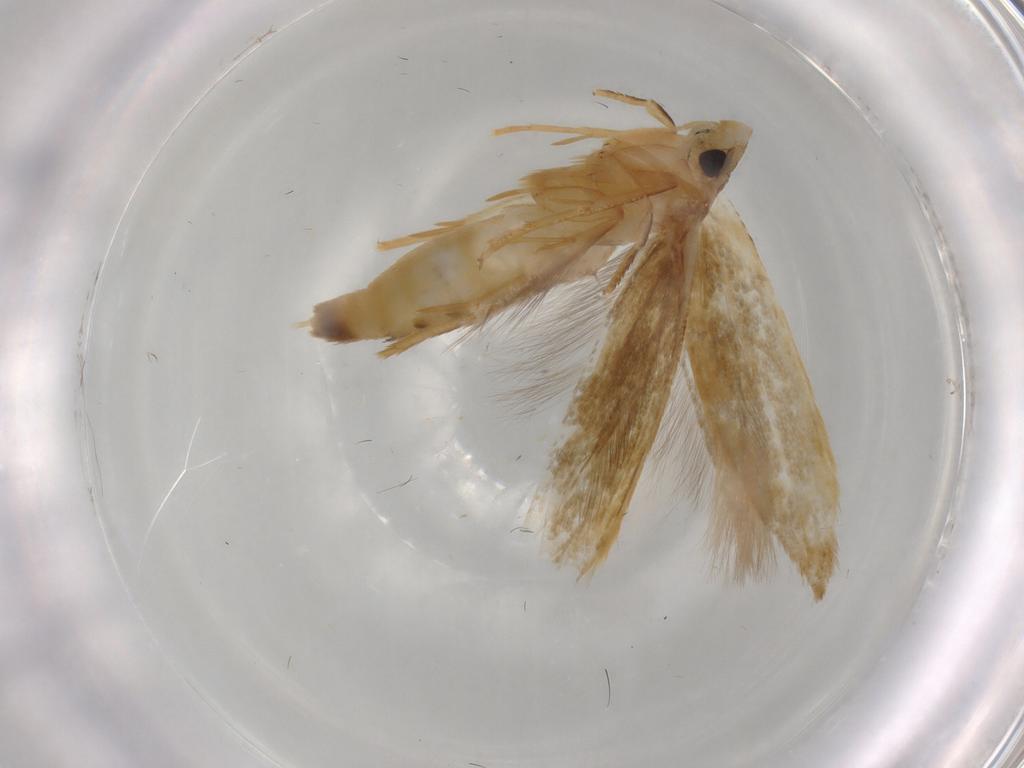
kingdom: Animalia
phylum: Arthropoda
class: Insecta
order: Lepidoptera
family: Tineidae
